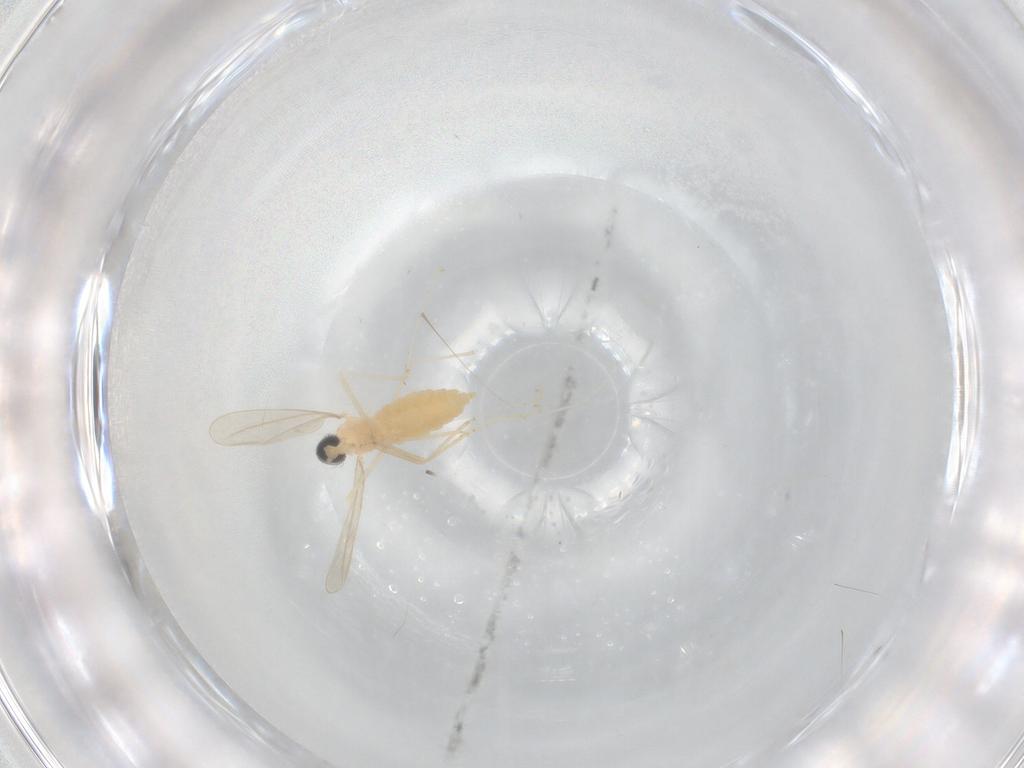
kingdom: Animalia
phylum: Arthropoda
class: Insecta
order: Diptera
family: Cecidomyiidae
